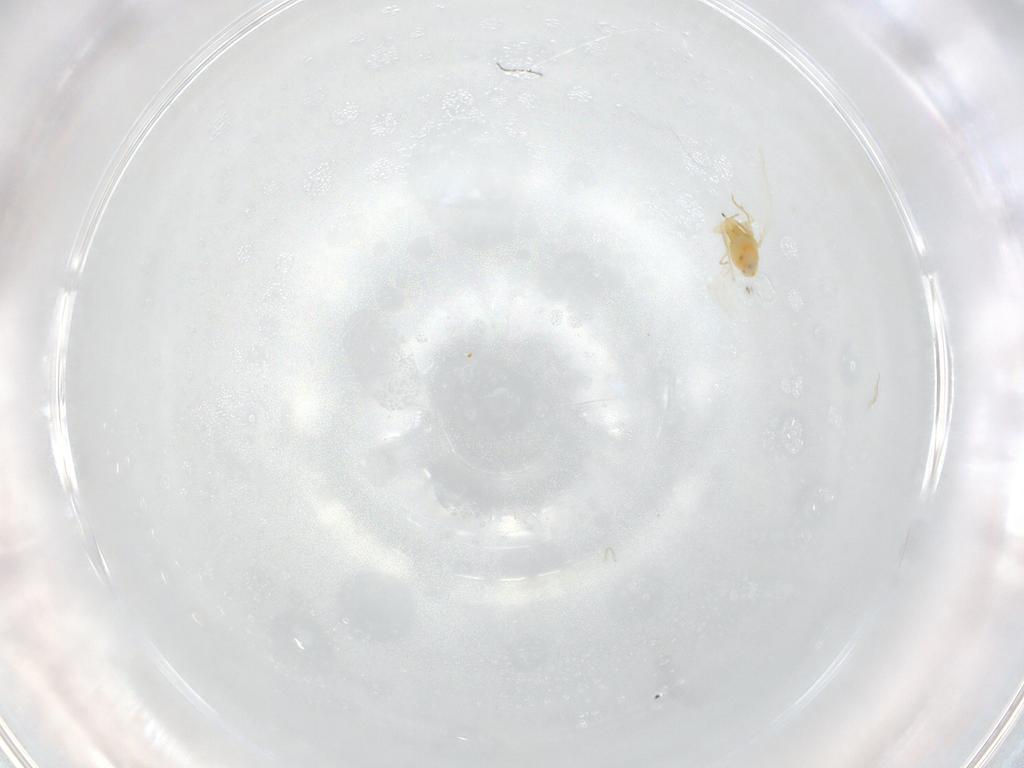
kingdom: Animalia
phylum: Arthropoda
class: Insecta
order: Hemiptera
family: Aleyrodidae
